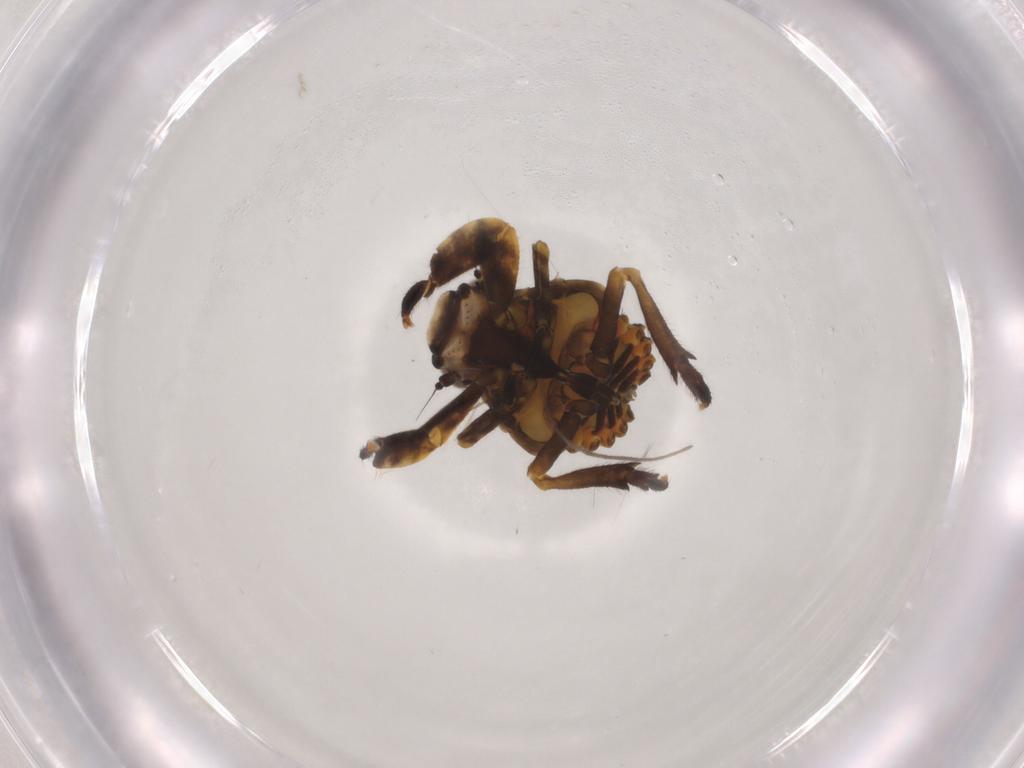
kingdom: Animalia
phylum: Arthropoda
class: Insecta
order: Hemiptera
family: Eurybrachidae
